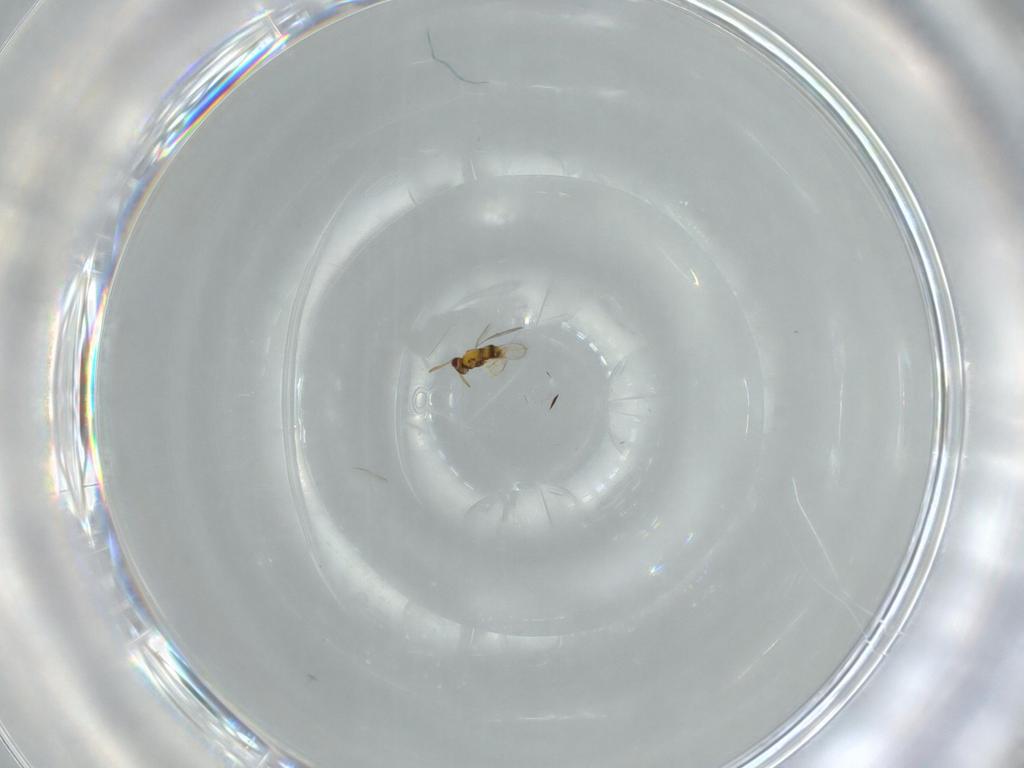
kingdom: Animalia
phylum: Arthropoda
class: Insecta
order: Hymenoptera
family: Aphelinidae
